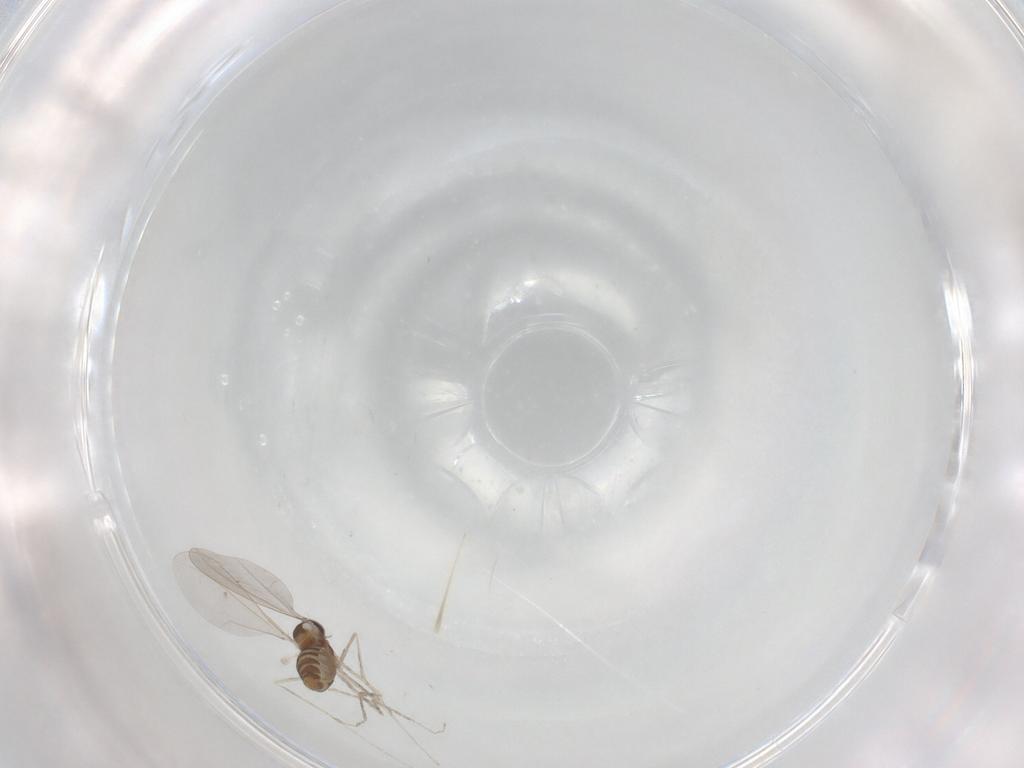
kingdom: Animalia
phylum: Arthropoda
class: Insecta
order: Diptera
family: Cecidomyiidae
